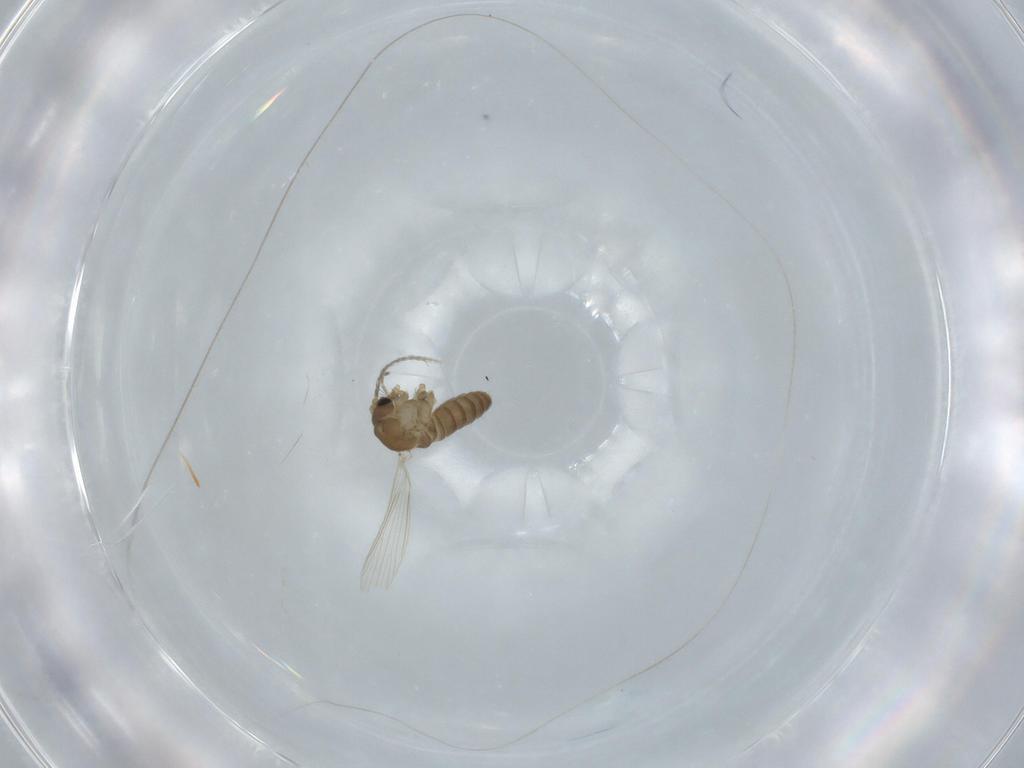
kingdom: Animalia
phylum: Arthropoda
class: Insecta
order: Diptera
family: Psychodidae
